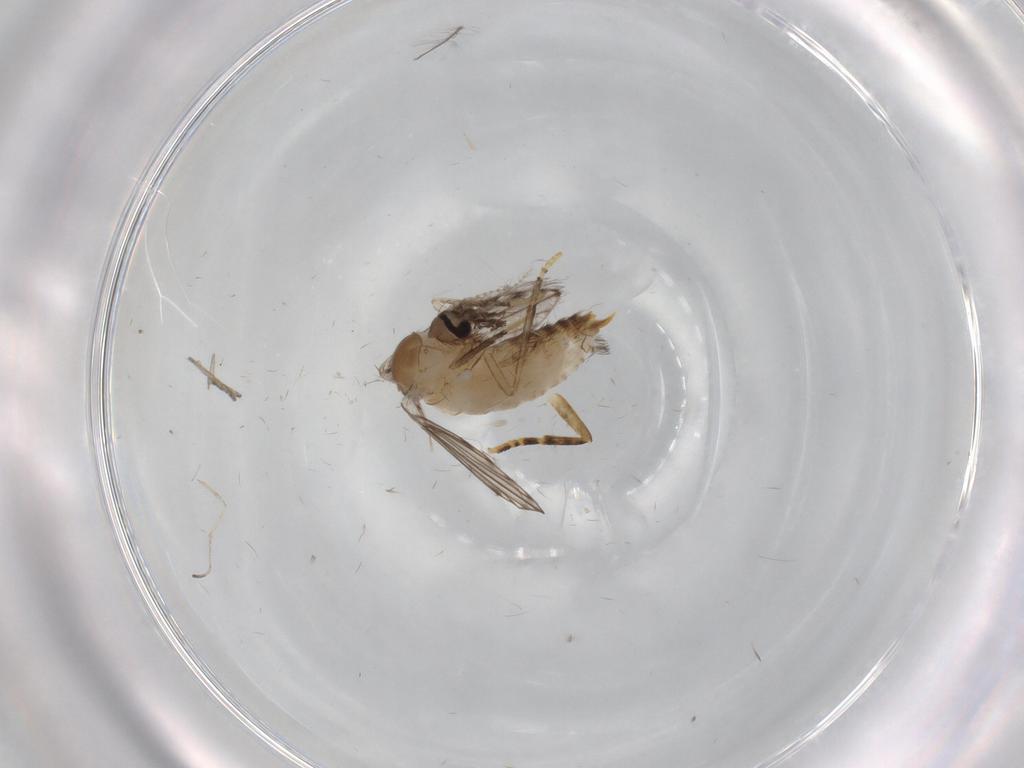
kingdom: Animalia
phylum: Arthropoda
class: Insecta
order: Diptera
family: Psychodidae
